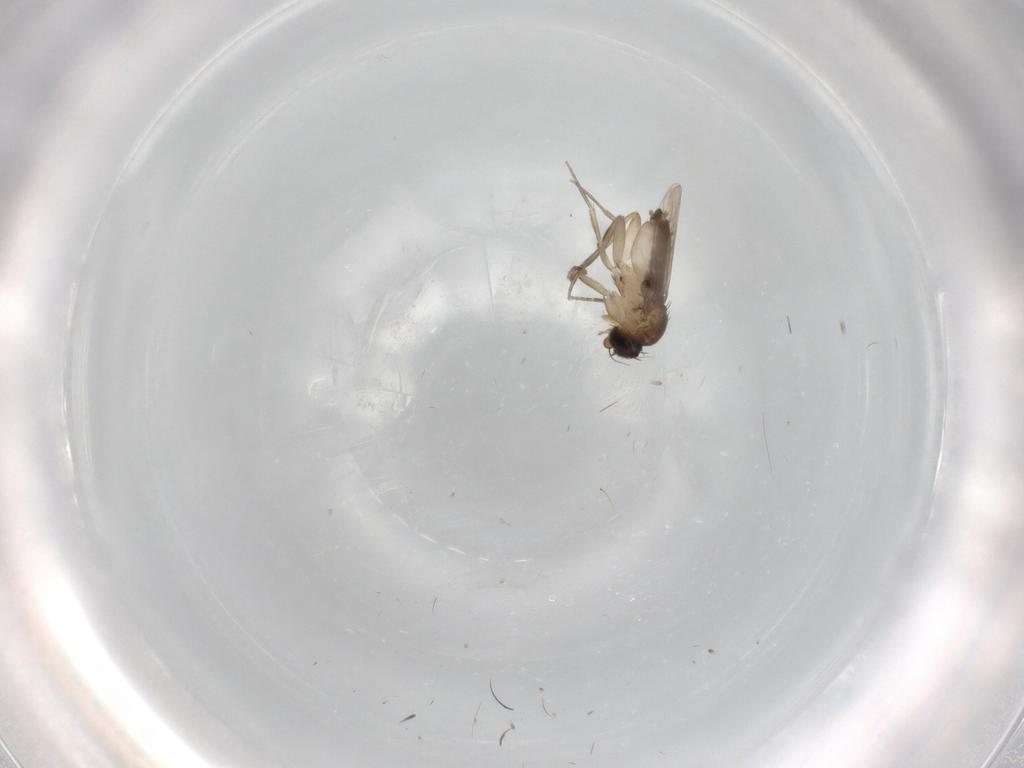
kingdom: Animalia
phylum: Arthropoda
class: Insecta
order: Diptera
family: Phoridae
